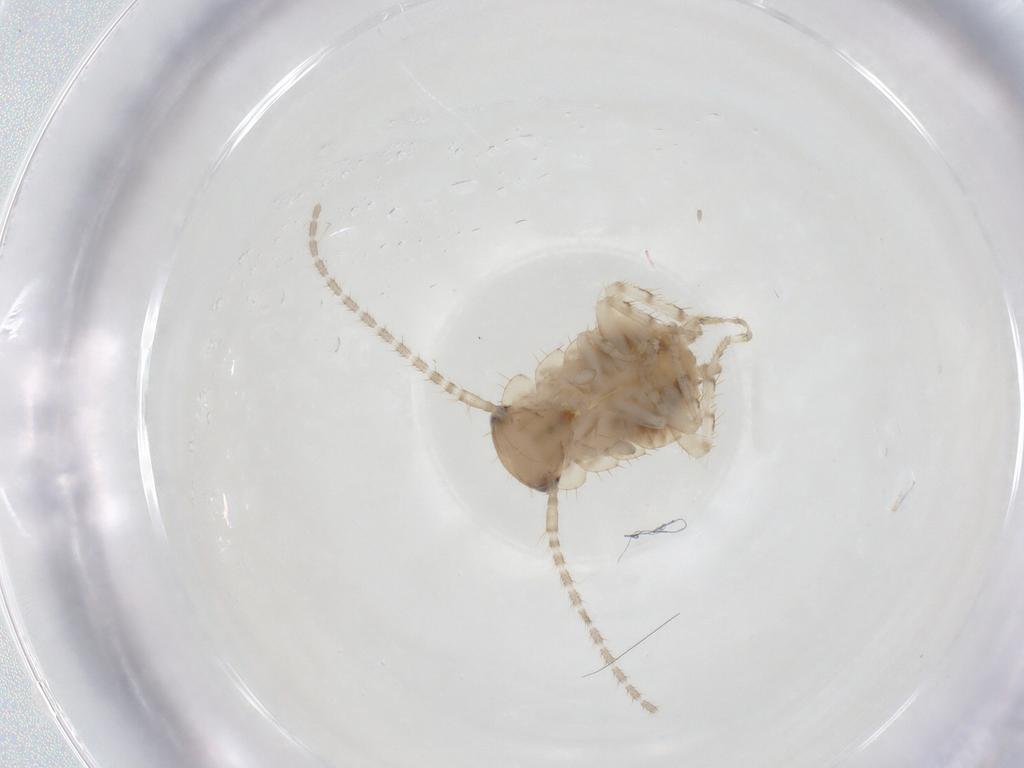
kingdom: Animalia
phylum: Arthropoda
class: Insecta
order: Blattodea
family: Ectobiidae
